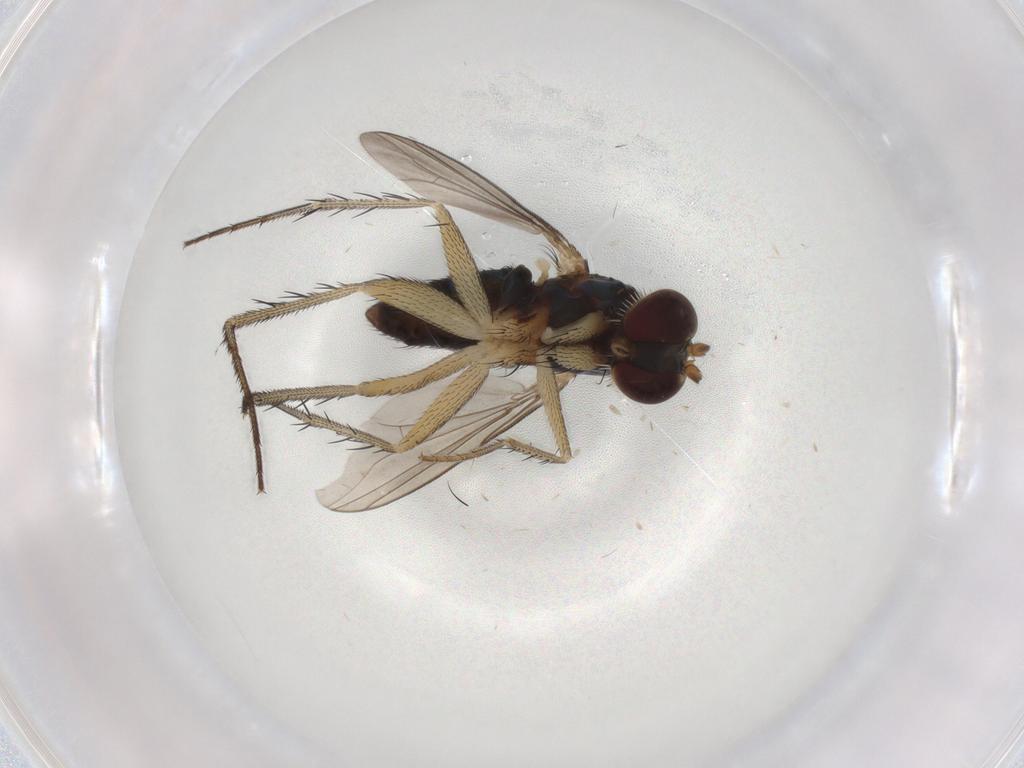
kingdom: Animalia
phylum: Arthropoda
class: Insecta
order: Diptera
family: Dolichopodidae
